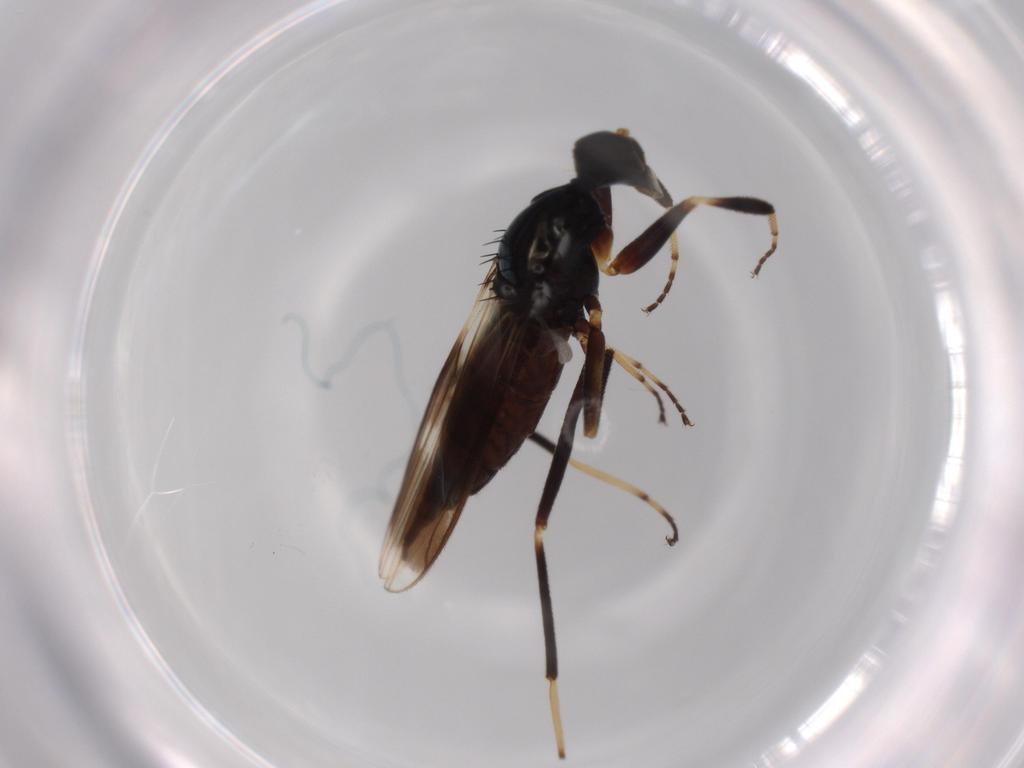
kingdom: Animalia
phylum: Arthropoda
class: Insecta
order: Diptera
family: Hybotidae
